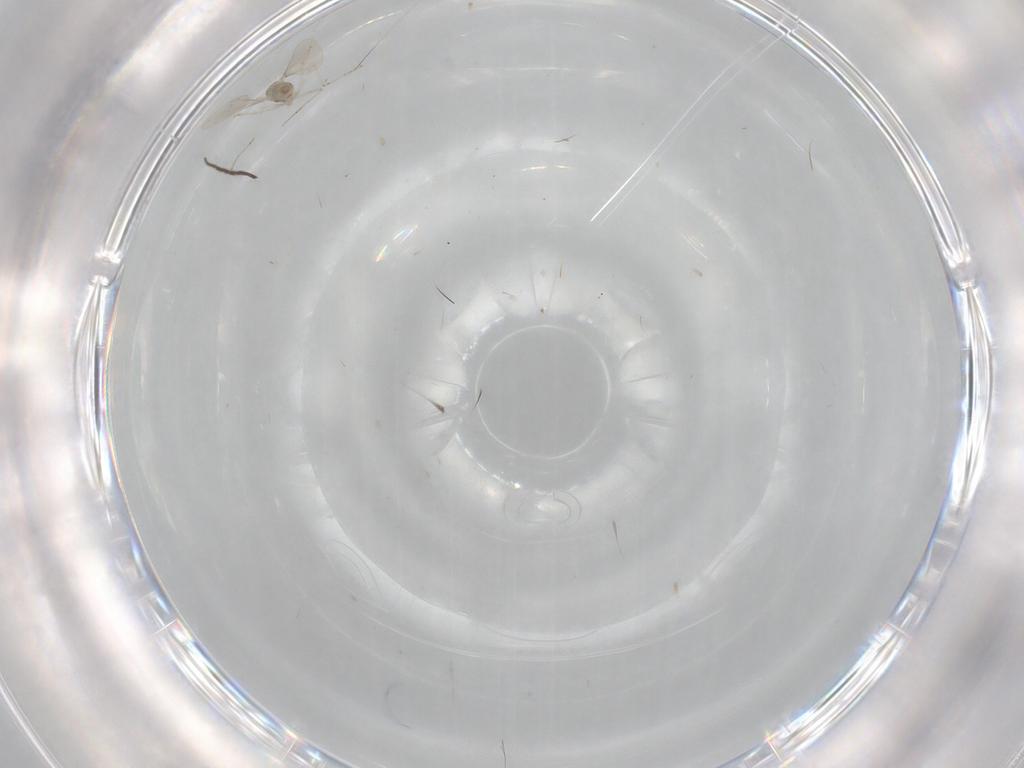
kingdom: Animalia
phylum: Arthropoda
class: Insecta
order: Diptera
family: Cecidomyiidae
